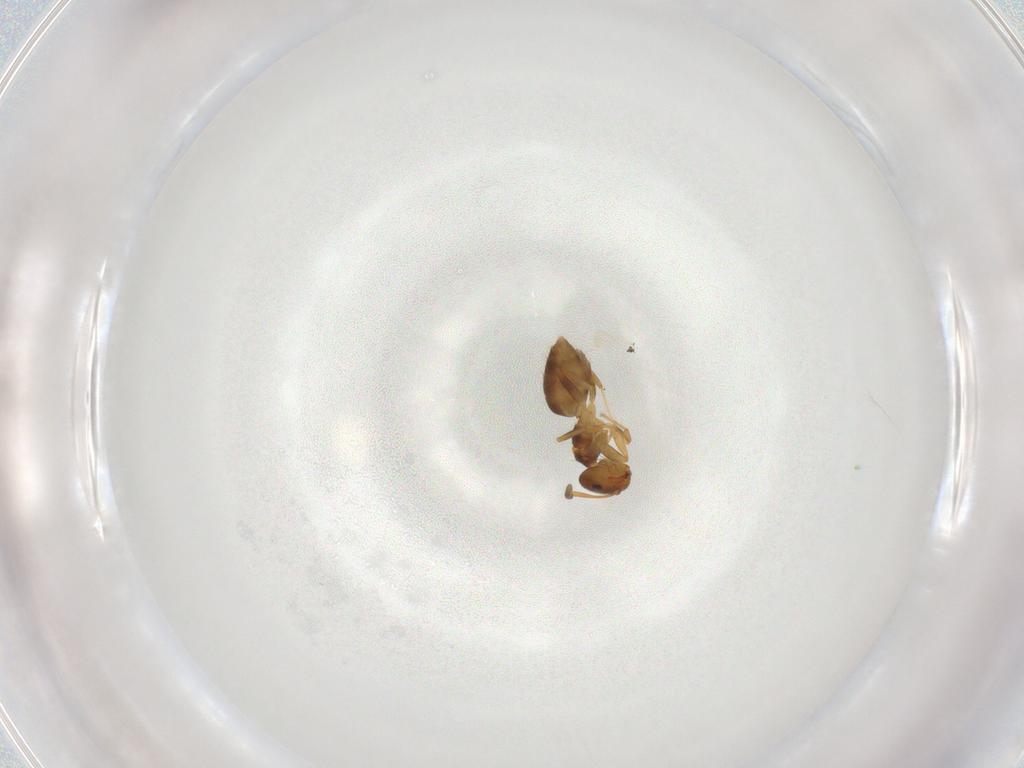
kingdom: Animalia
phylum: Arthropoda
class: Insecta
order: Hymenoptera
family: Formicidae
